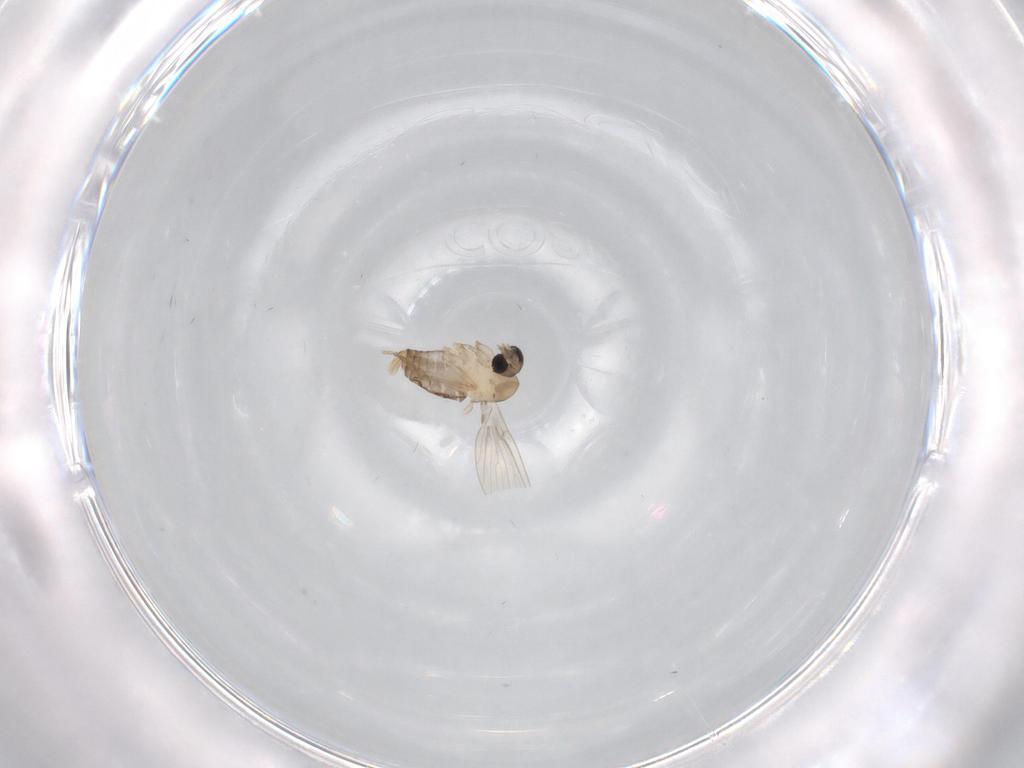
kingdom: Animalia
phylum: Arthropoda
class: Insecta
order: Diptera
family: Psychodidae
